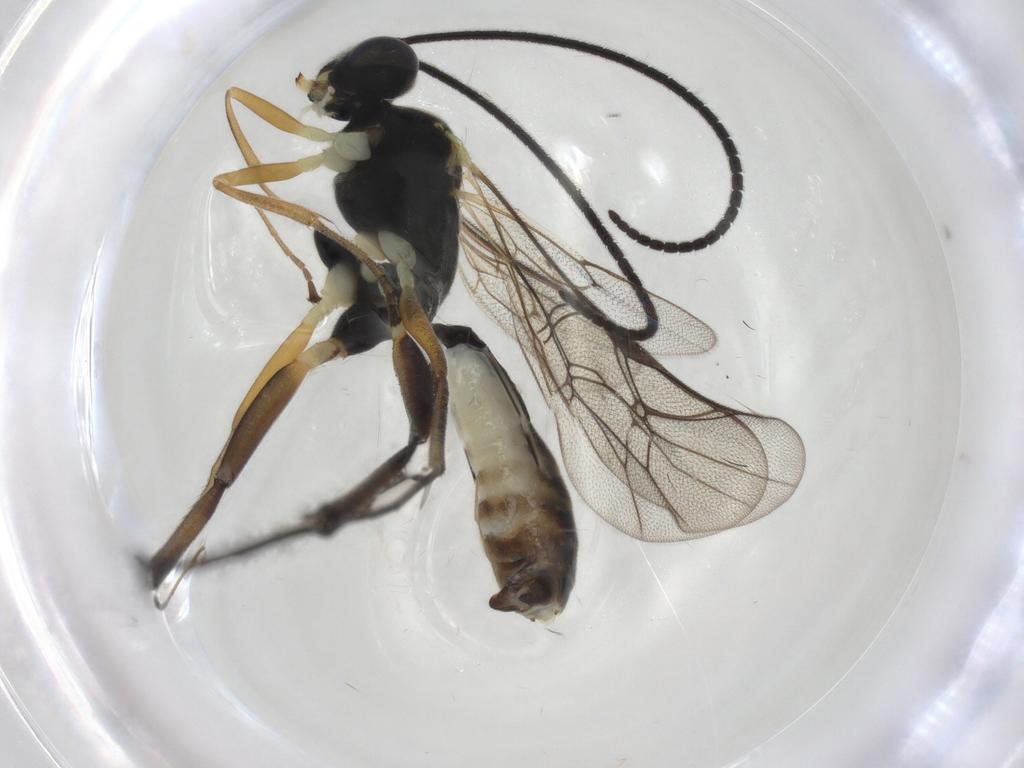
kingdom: Animalia
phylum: Arthropoda
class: Insecta
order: Hymenoptera
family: Ichneumonidae
